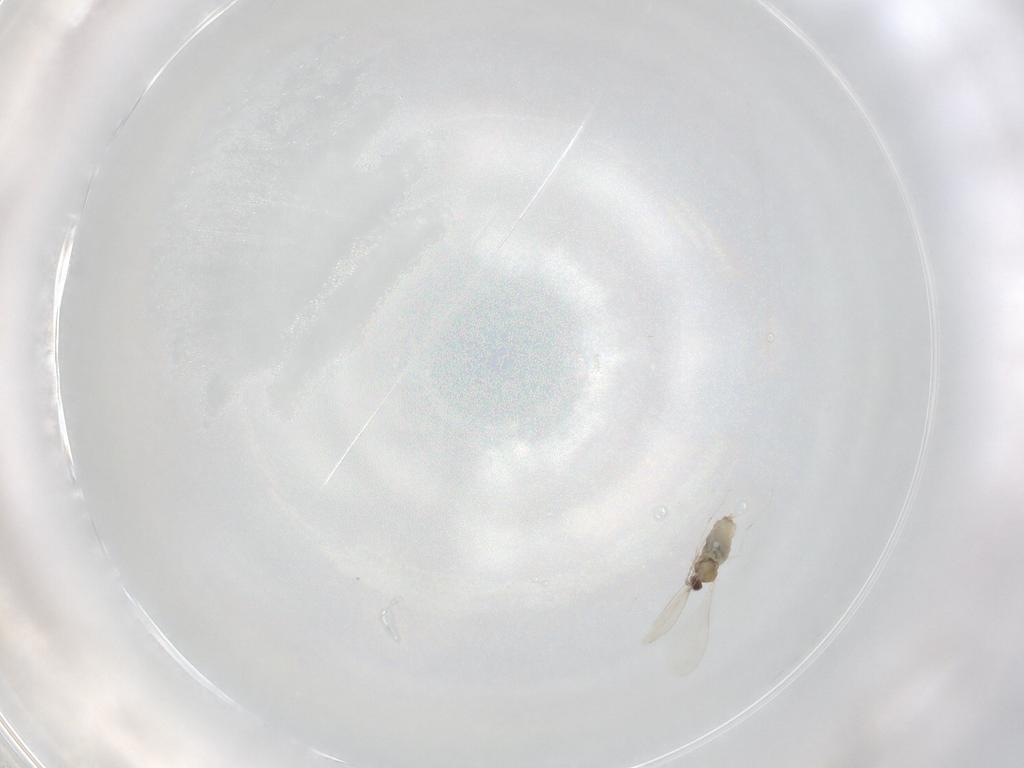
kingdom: Animalia
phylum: Arthropoda
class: Insecta
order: Diptera
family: Cecidomyiidae
